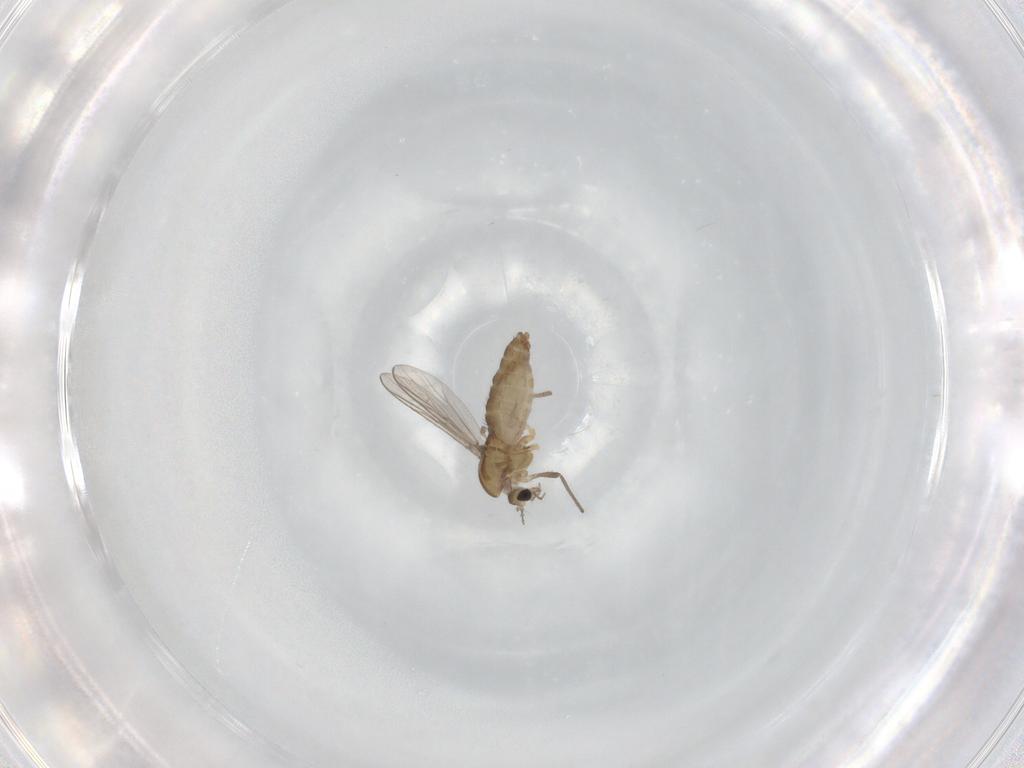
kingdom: Animalia
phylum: Arthropoda
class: Insecta
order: Diptera
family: Chironomidae
